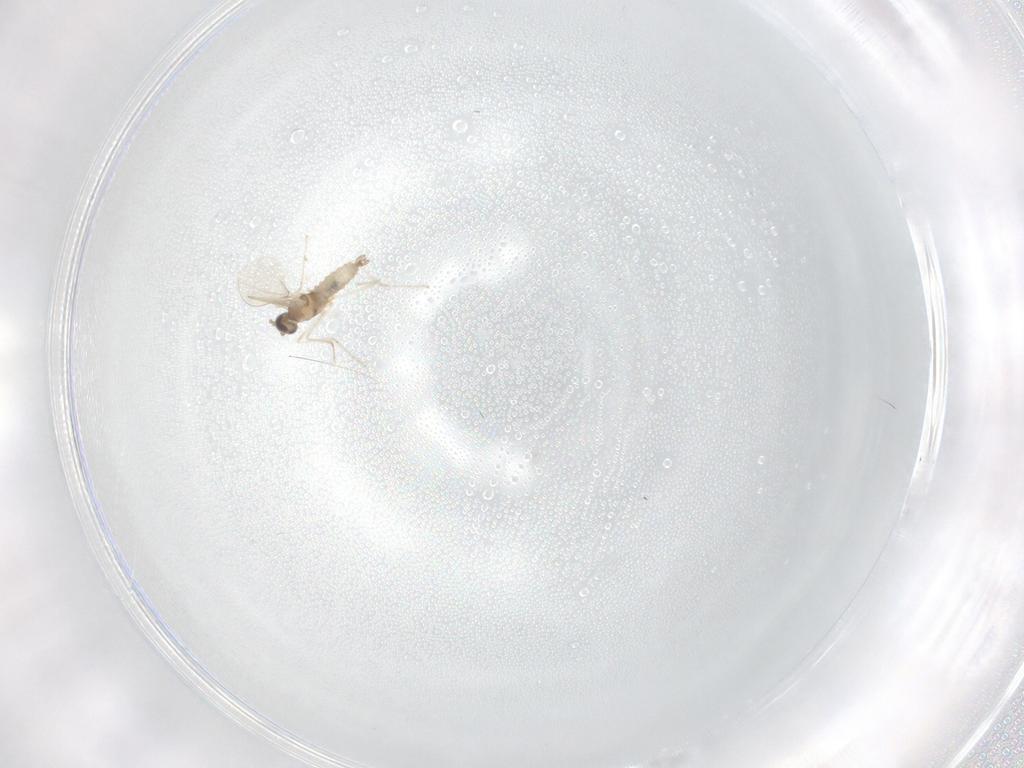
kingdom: Animalia
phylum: Arthropoda
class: Insecta
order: Diptera
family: Cecidomyiidae
